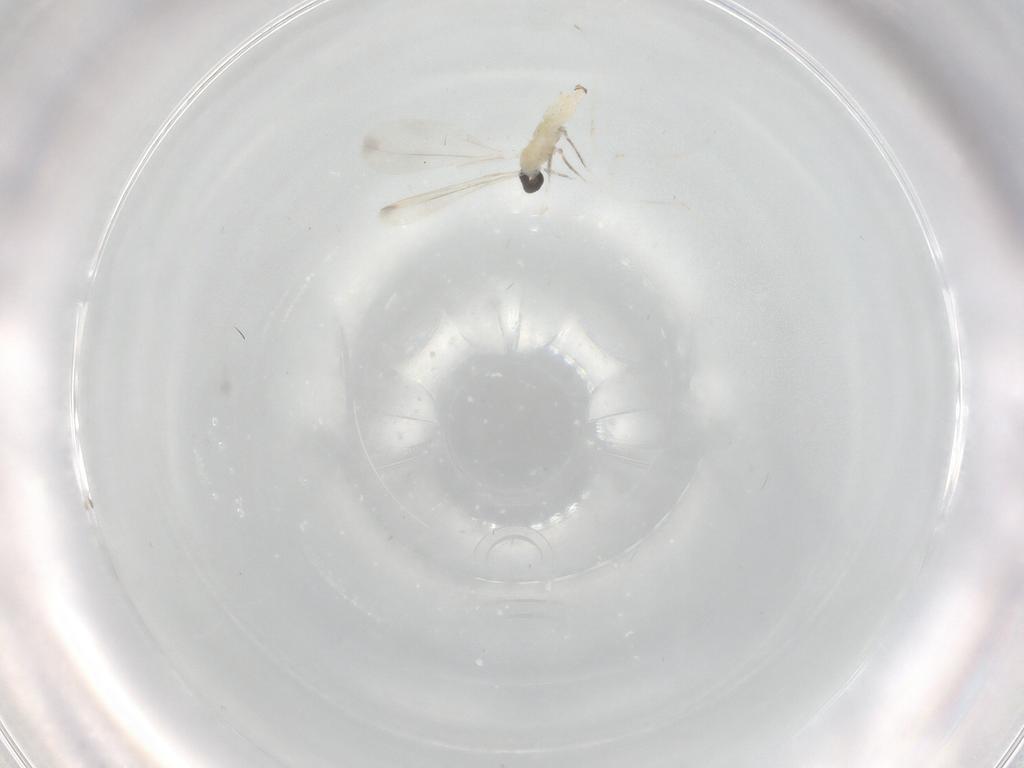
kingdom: Animalia
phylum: Arthropoda
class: Insecta
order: Diptera
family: Cecidomyiidae
